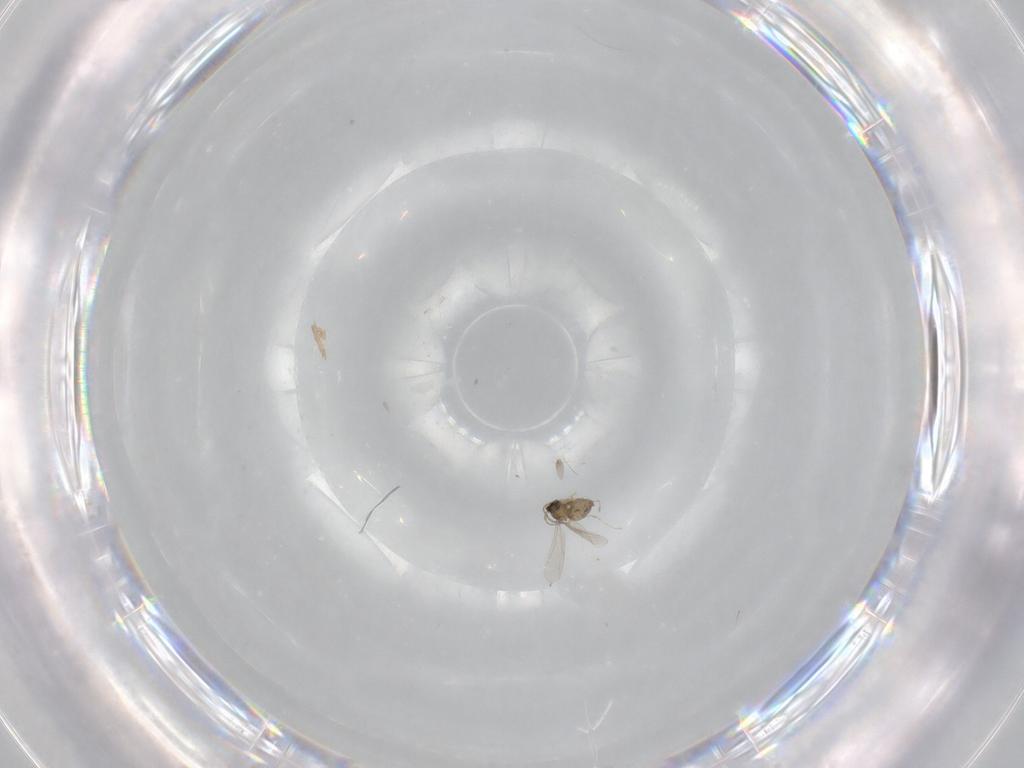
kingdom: Animalia
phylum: Arthropoda
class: Insecta
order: Diptera
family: Cecidomyiidae
